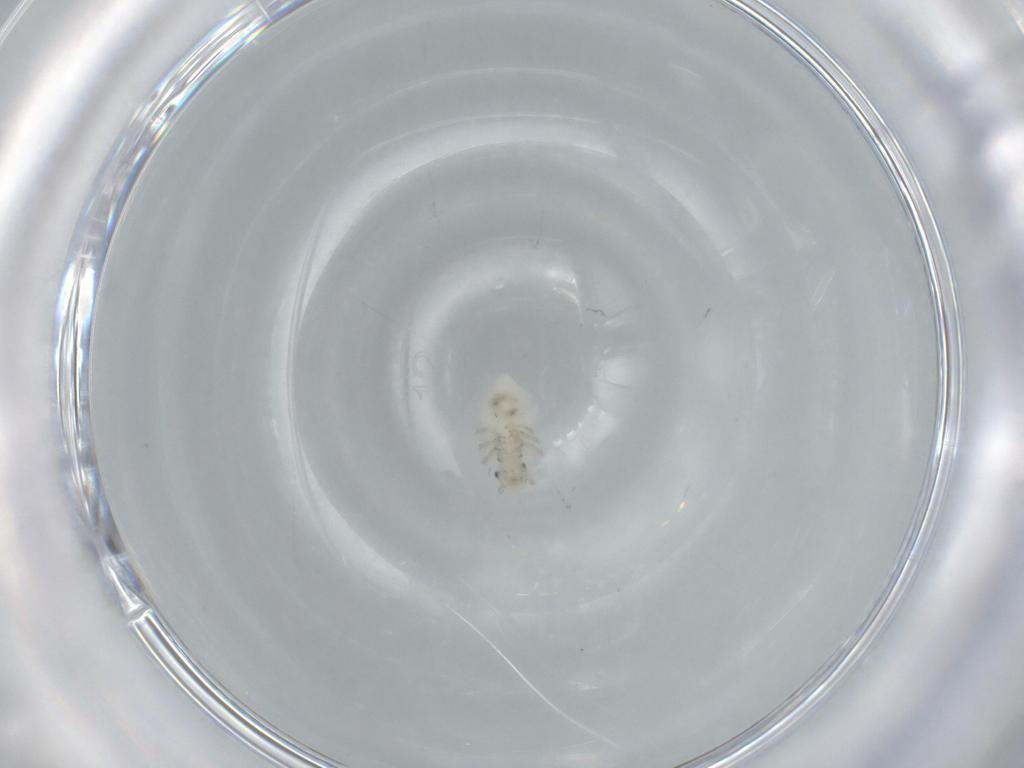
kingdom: Animalia
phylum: Arthropoda
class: Insecta
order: Psocodea
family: Amphipsocidae
